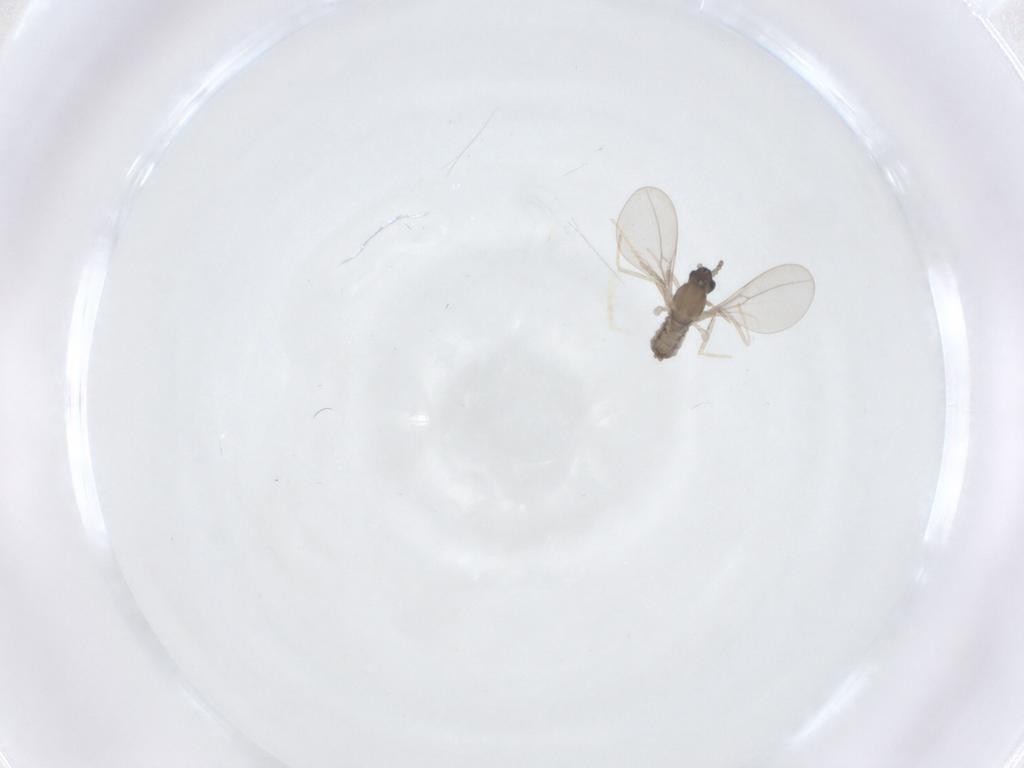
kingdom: Animalia
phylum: Arthropoda
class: Insecta
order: Diptera
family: Cecidomyiidae
